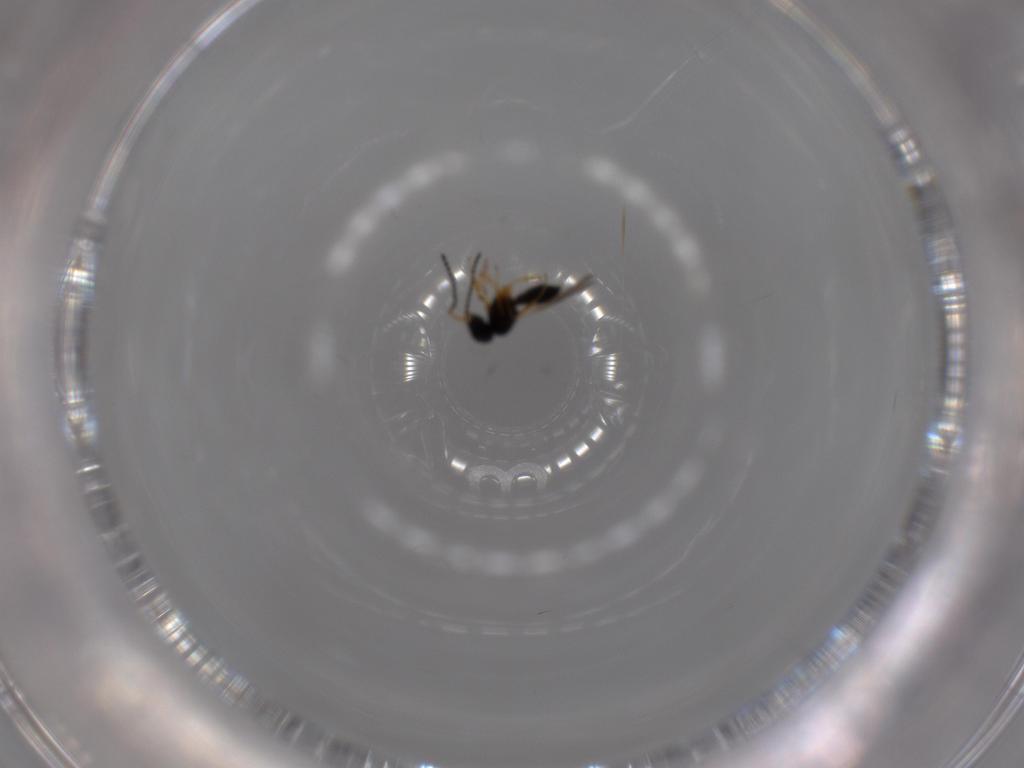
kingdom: Animalia
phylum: Arthropoda
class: Insecta
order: Hymenoptera
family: Scelionidae
